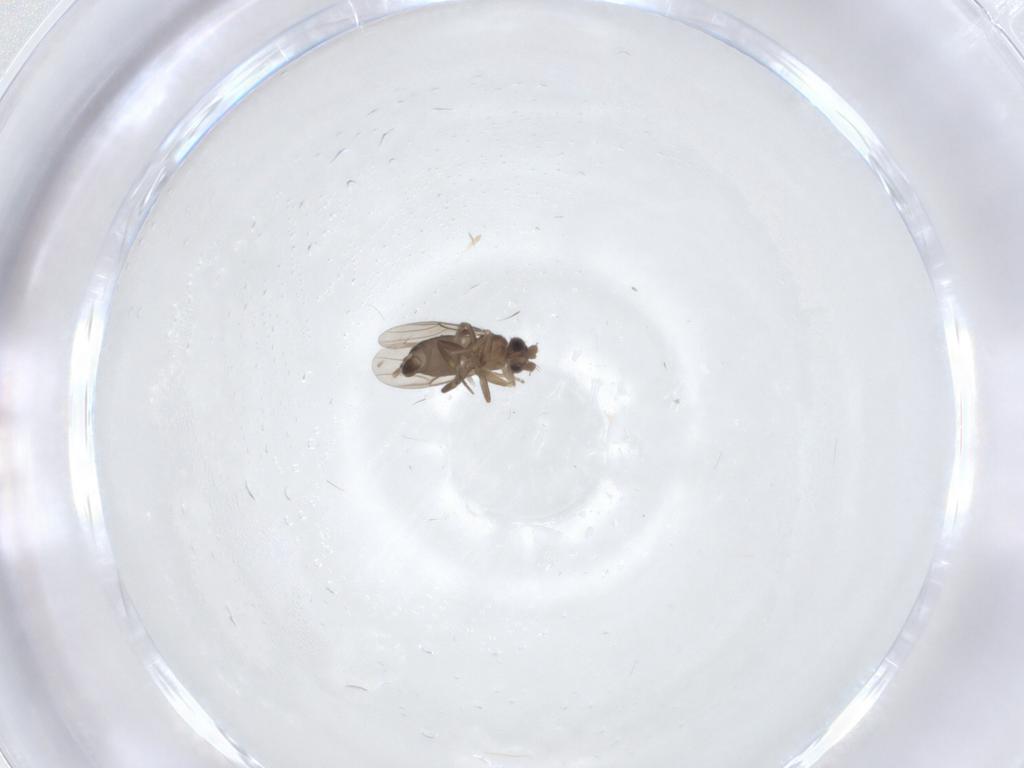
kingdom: Animalia
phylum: Arthropoda
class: Insecta
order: Diptera
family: Cecidomyiidae
